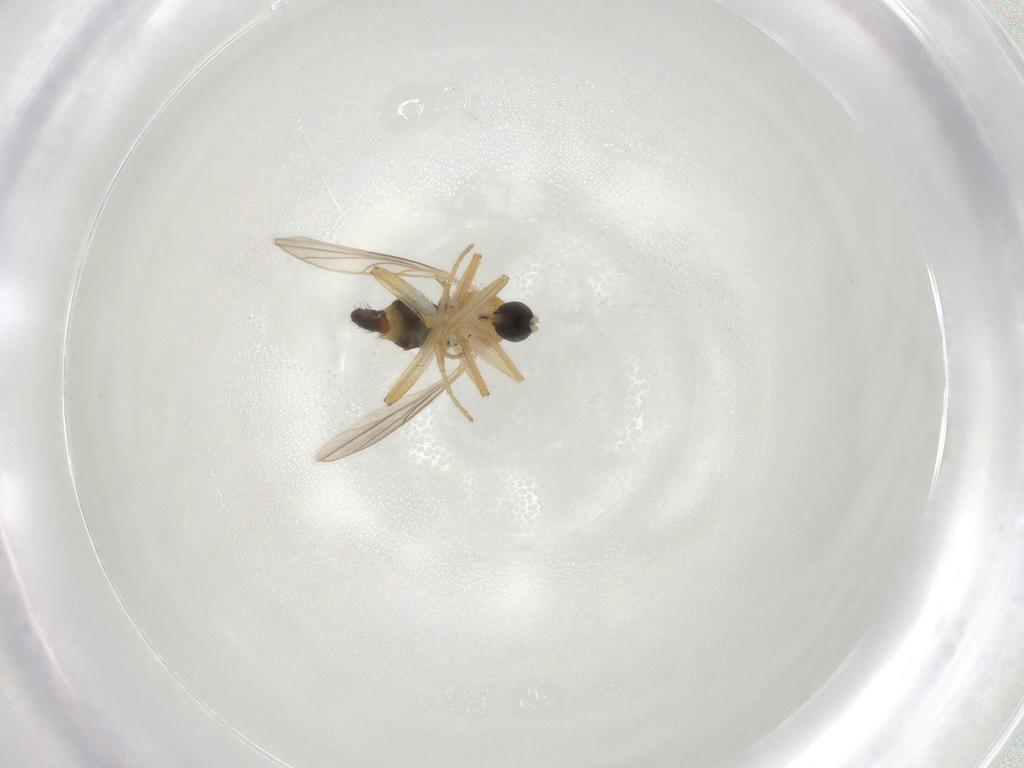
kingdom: Animalia
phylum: Arthropoda
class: Insecta
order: Diptera
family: Hybotidae
